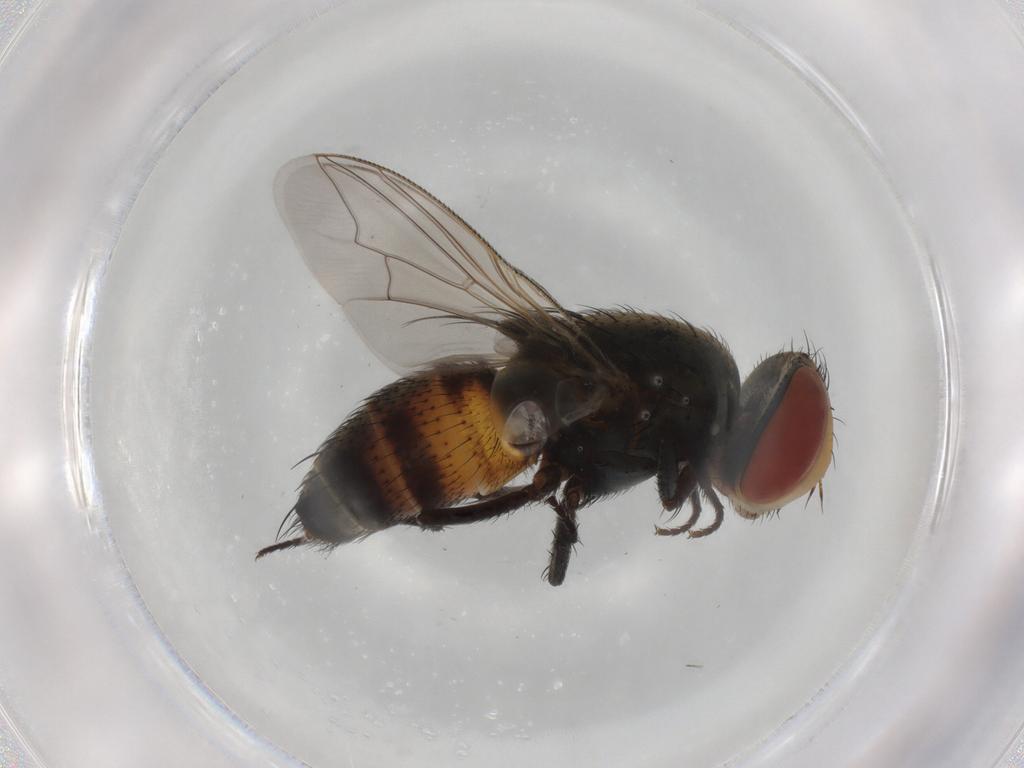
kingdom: Animalia
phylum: Arthropoda
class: Insecta
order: Diptera
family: Sarcophagidae
